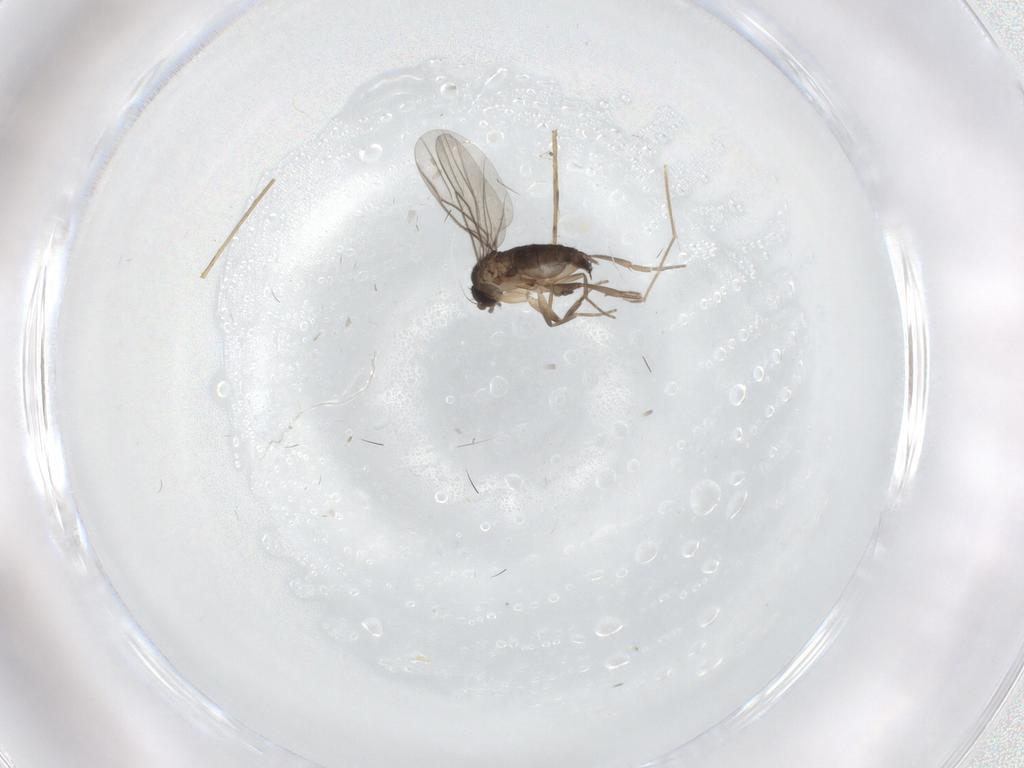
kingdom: Animalia
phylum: Arthropoda
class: Insecta
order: Diptera
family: Phoridae
